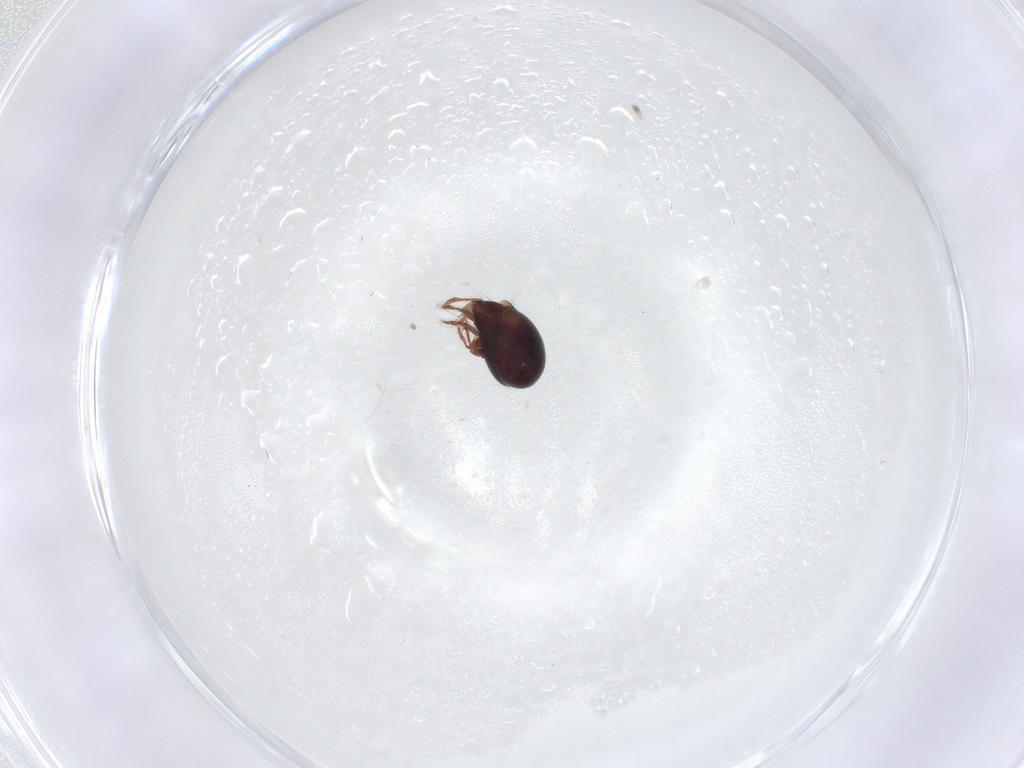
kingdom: Animalia
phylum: Arthropoda
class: Arachnida
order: Sarcoptiformes
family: Humerobatidae
